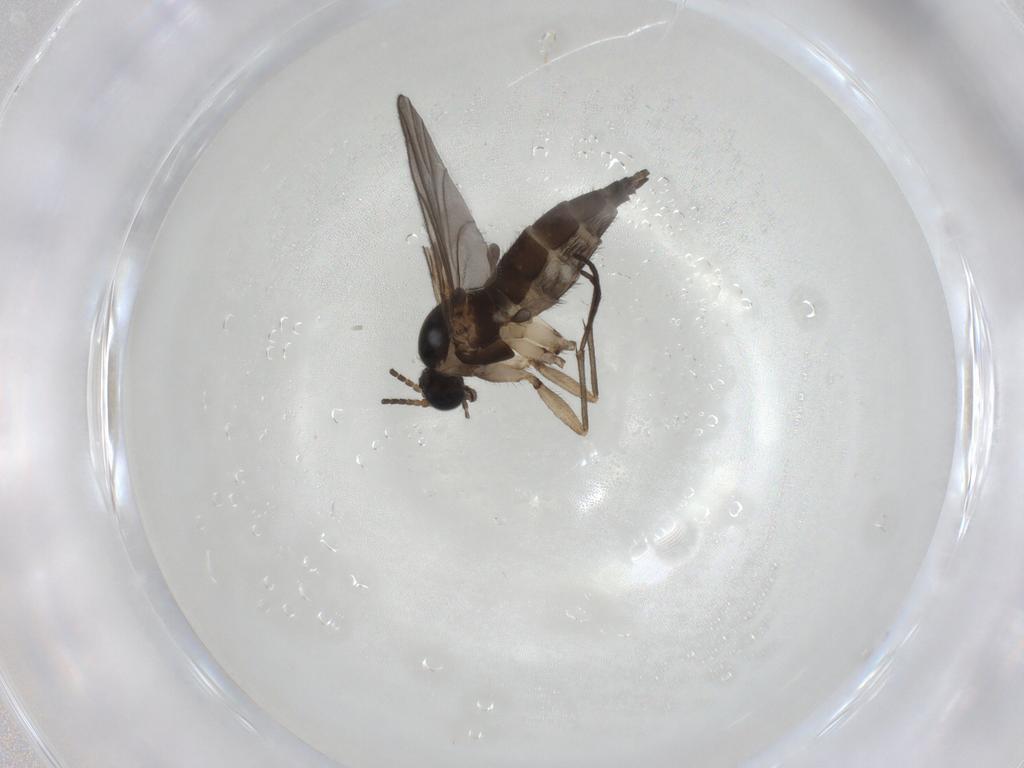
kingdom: Animalia
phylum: Arthropoda
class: Insecta
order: Diptera
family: Sciaridae
